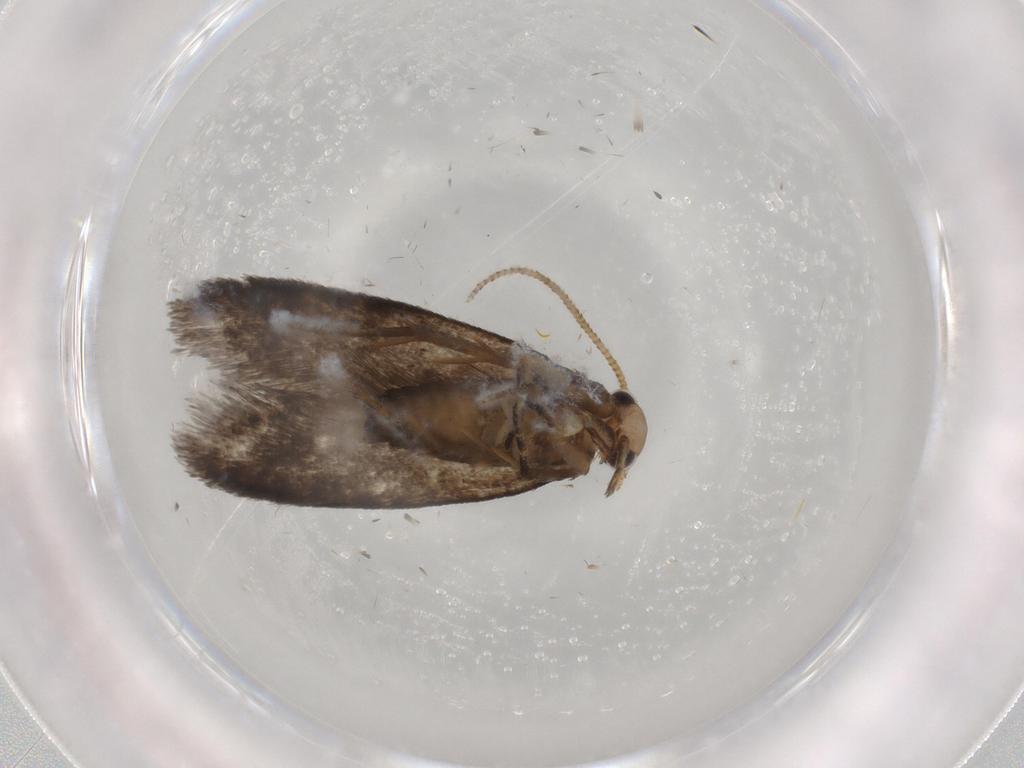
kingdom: Animalia
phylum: Arthropoda
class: Insecta
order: Lepidoptera
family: Tineidae
